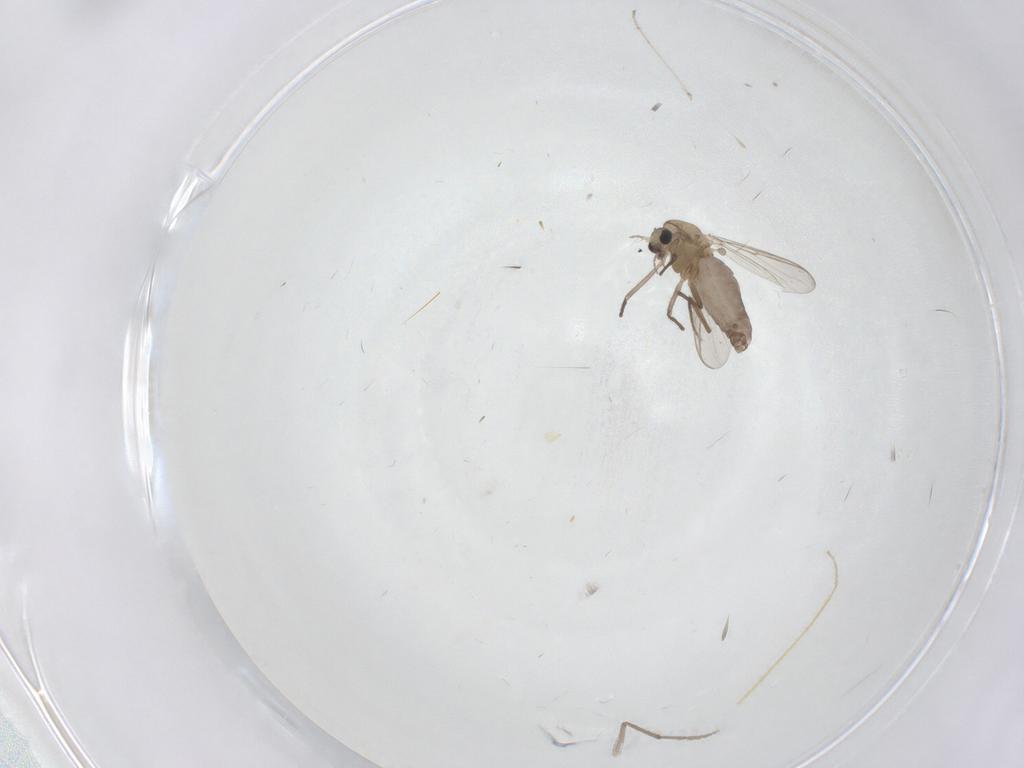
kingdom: Animalia
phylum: Arthropoda
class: Insecta
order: Diptera
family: Chironomidae
